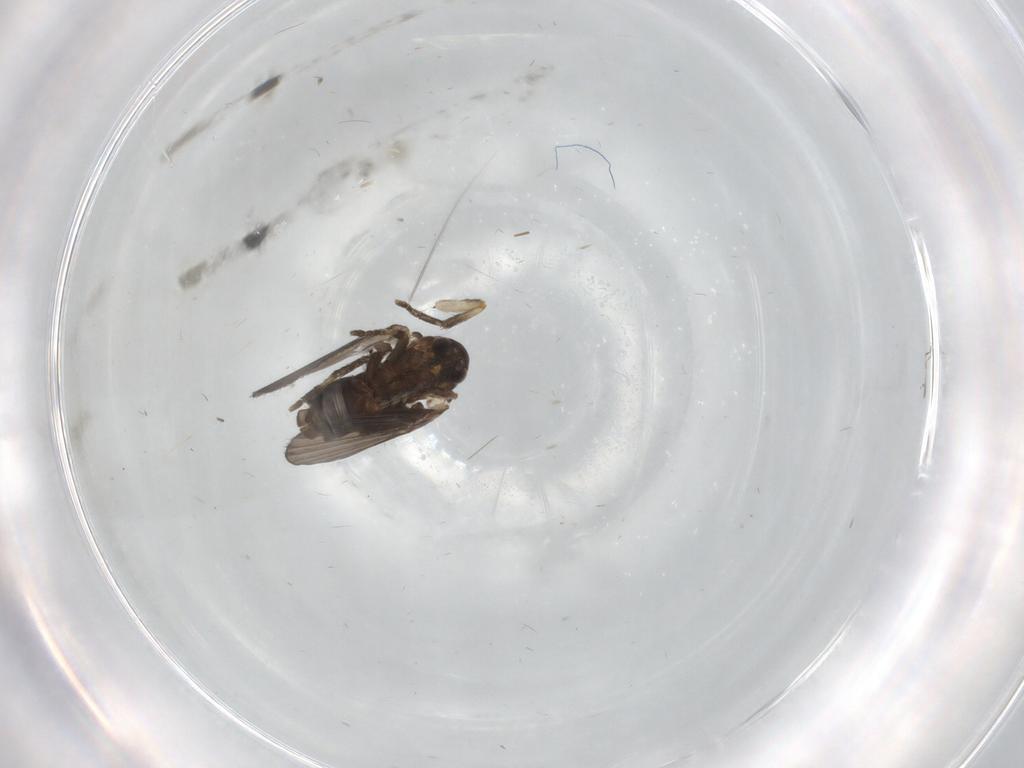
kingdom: Animalia
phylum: Arthropoda
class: Insecta
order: Diptera
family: Psychodidae
